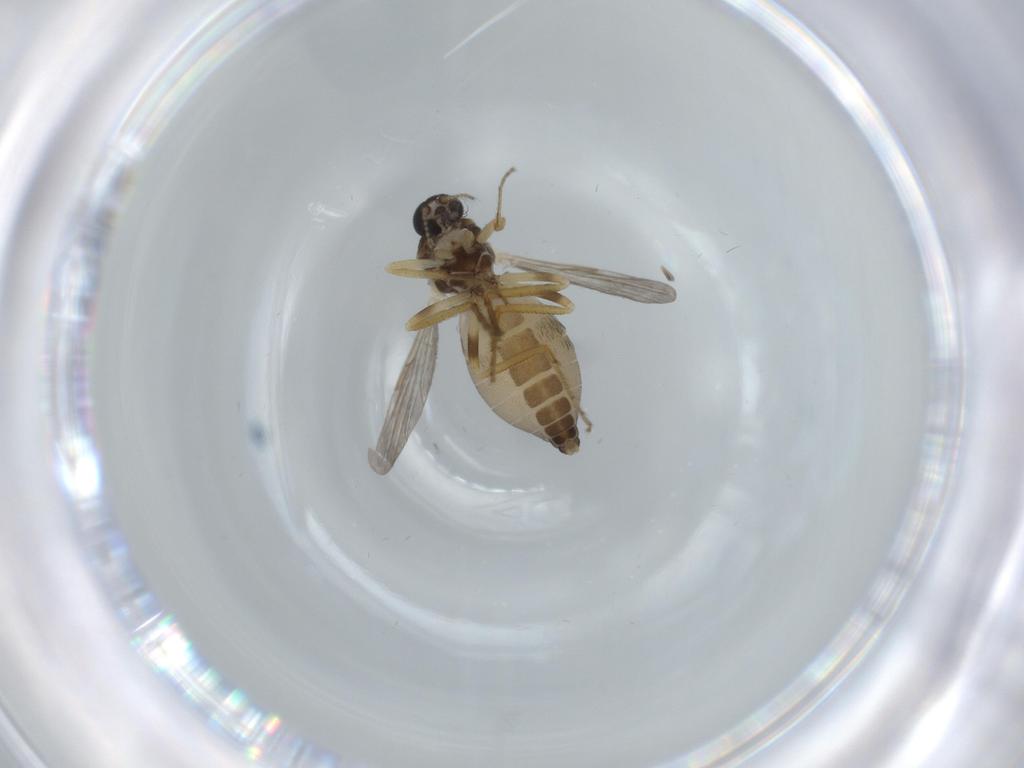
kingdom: Animalia
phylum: Arthropoda
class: Insecta
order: Diptera
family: Ceratopogonidae
